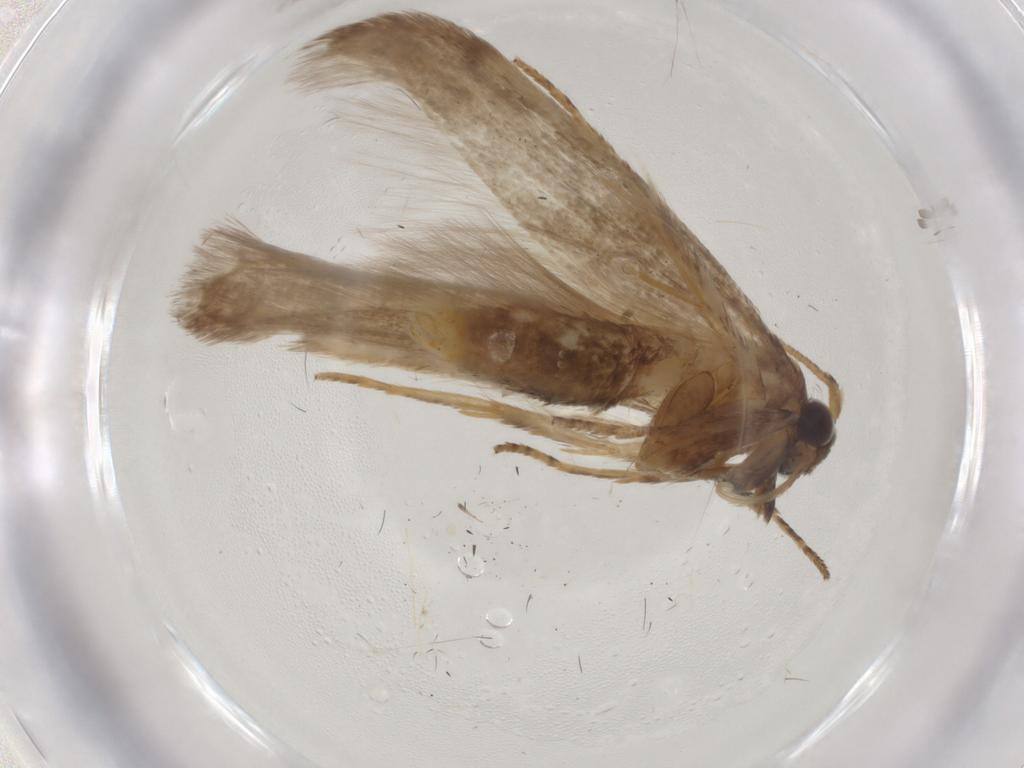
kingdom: Animalia
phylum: Arthropoda
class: Insecta
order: Lepidoptera
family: Coleophoridae
